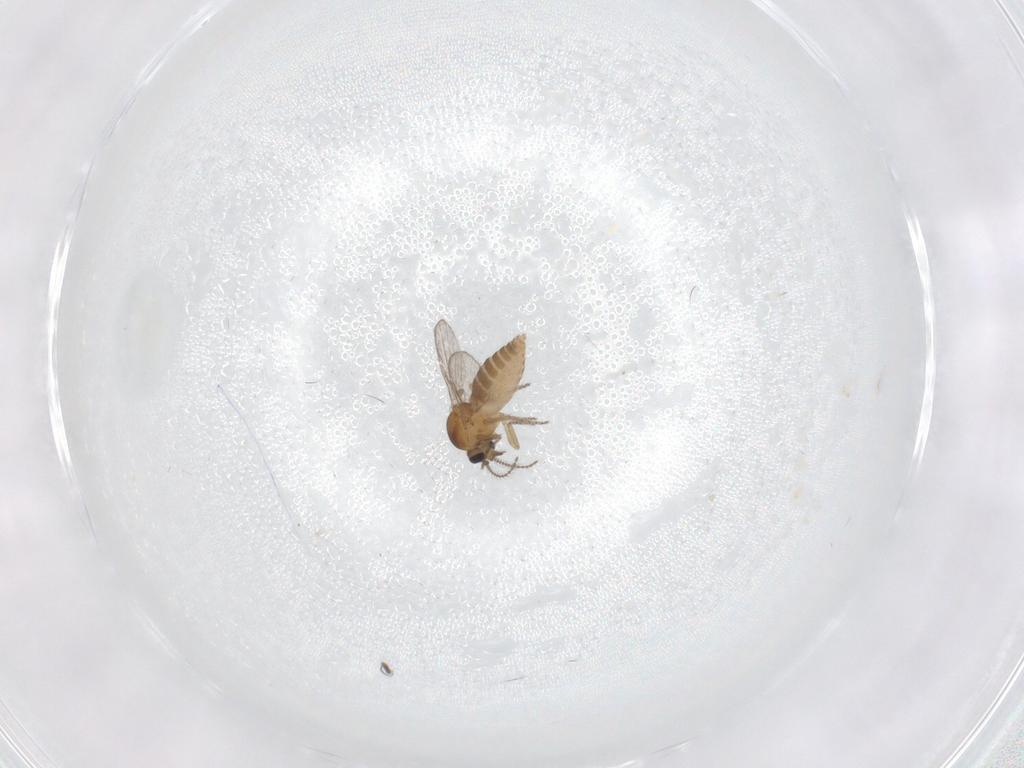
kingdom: Animalia
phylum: Arthropoda
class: Insecta
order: Diptera
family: Ceratopogonidae
